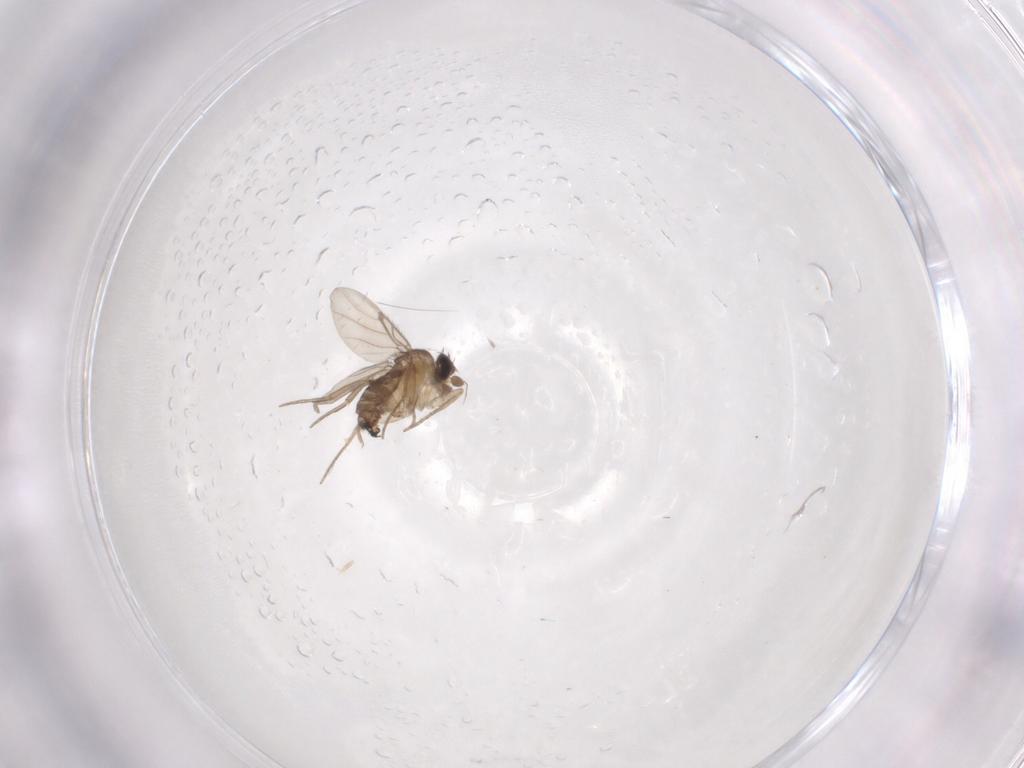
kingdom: Animalia
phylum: Arthropoda
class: Insecta
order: Diptera
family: Phoridae
